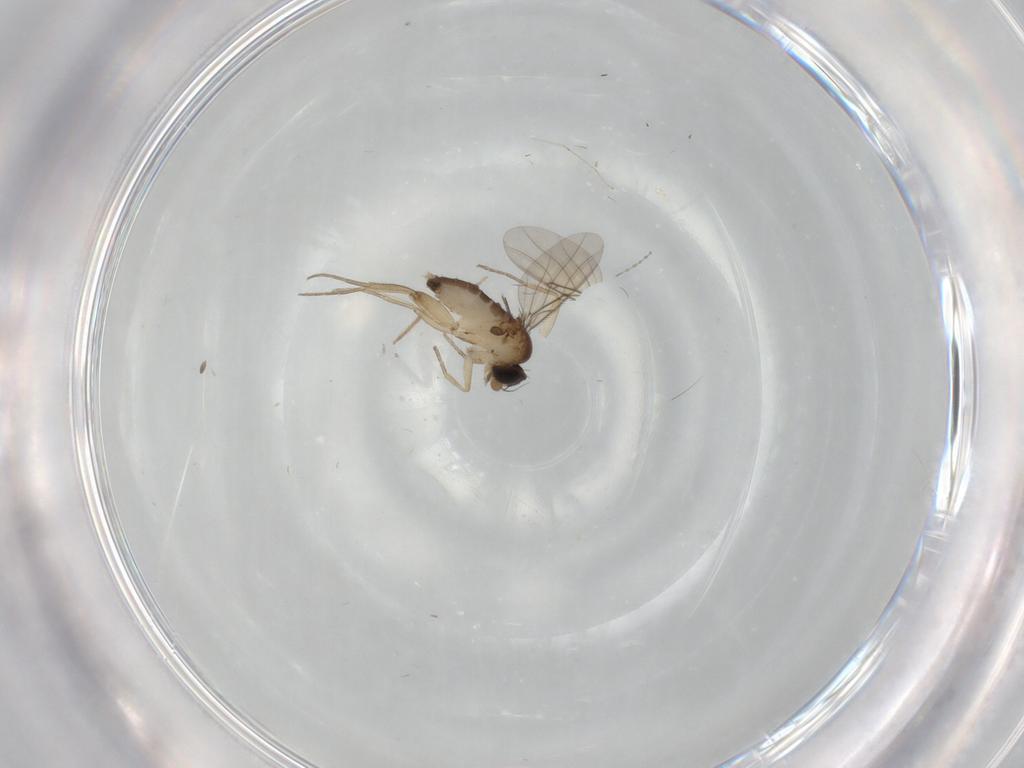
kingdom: Animalia
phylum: Arthropoda
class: Insecta
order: Diptera
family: Phoridae
